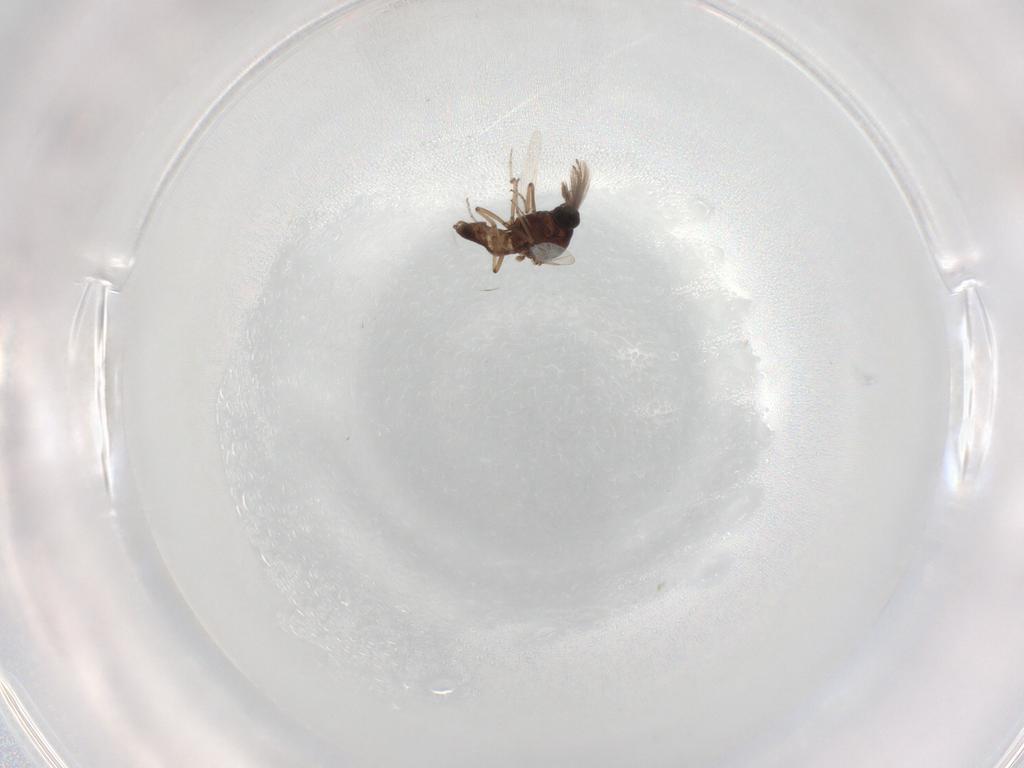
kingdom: Animalia
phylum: Arthropoda
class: Insecta
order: Diptera
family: Ceratopogonidae
